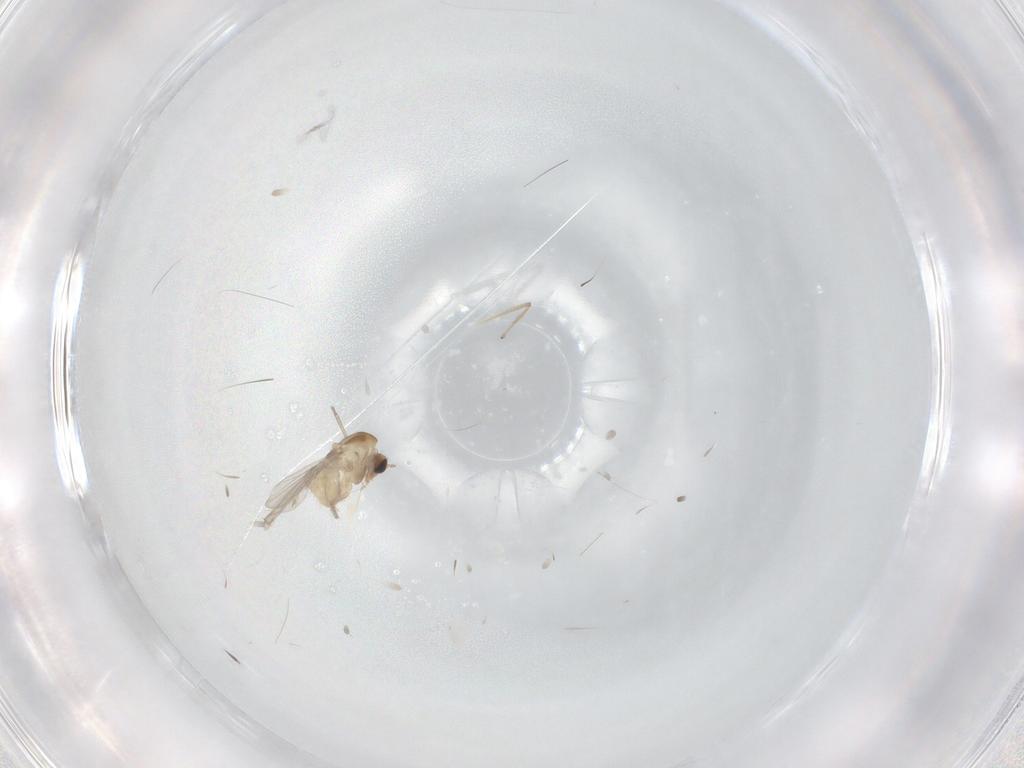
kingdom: Animalia
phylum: Arthropoda
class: Insecta
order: Diptera
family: Chironomidae
